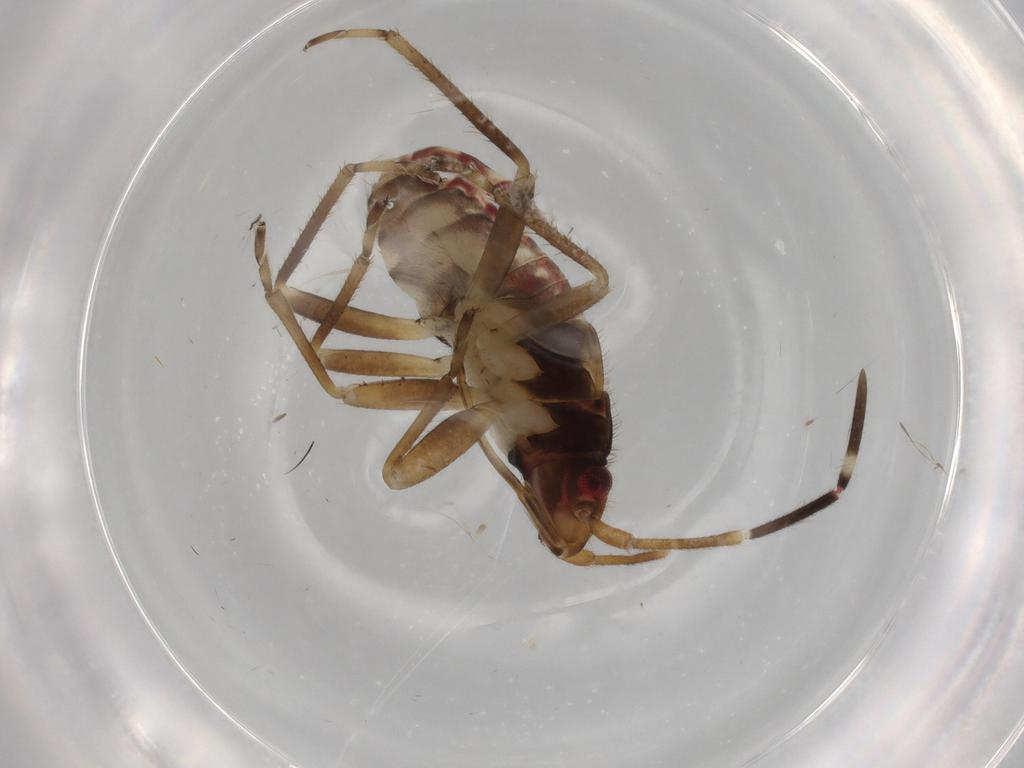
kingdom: Animalia
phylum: Arthropoda
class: Insecta
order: Hemiptera
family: Rhyparochromidae
